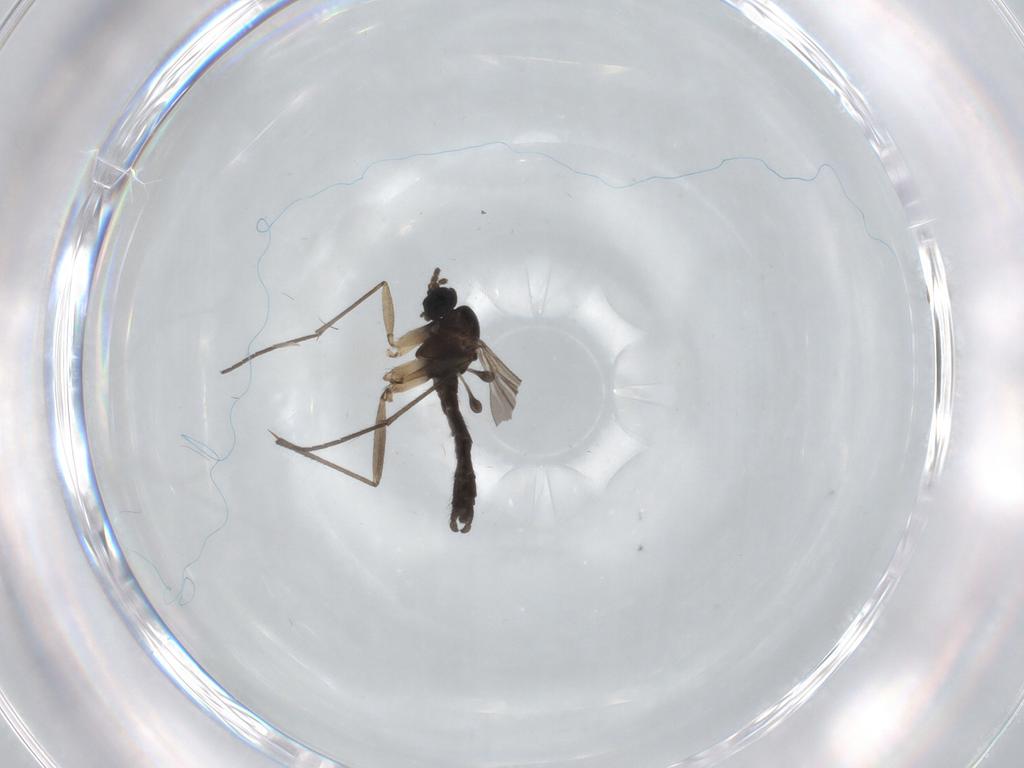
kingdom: Animalia
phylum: Arthropoda
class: Insecta
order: Diptera
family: Sciaridae
